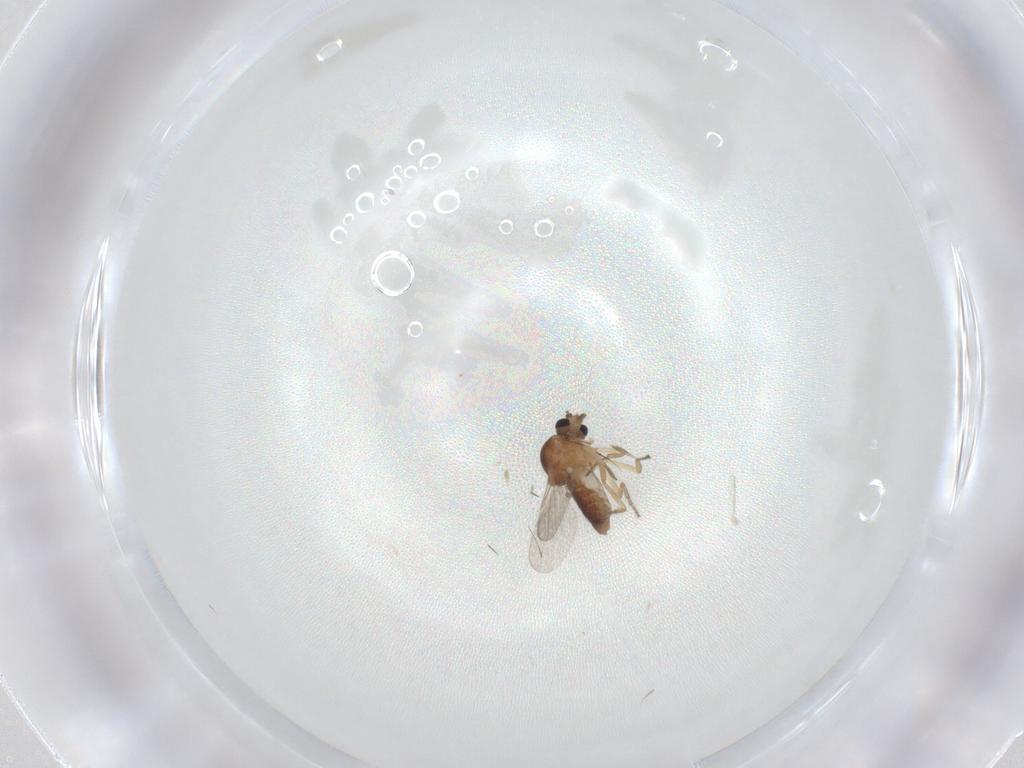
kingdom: Animalia
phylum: Arthropoda
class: Insecta
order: Diptera
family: Ceratopogonidae
